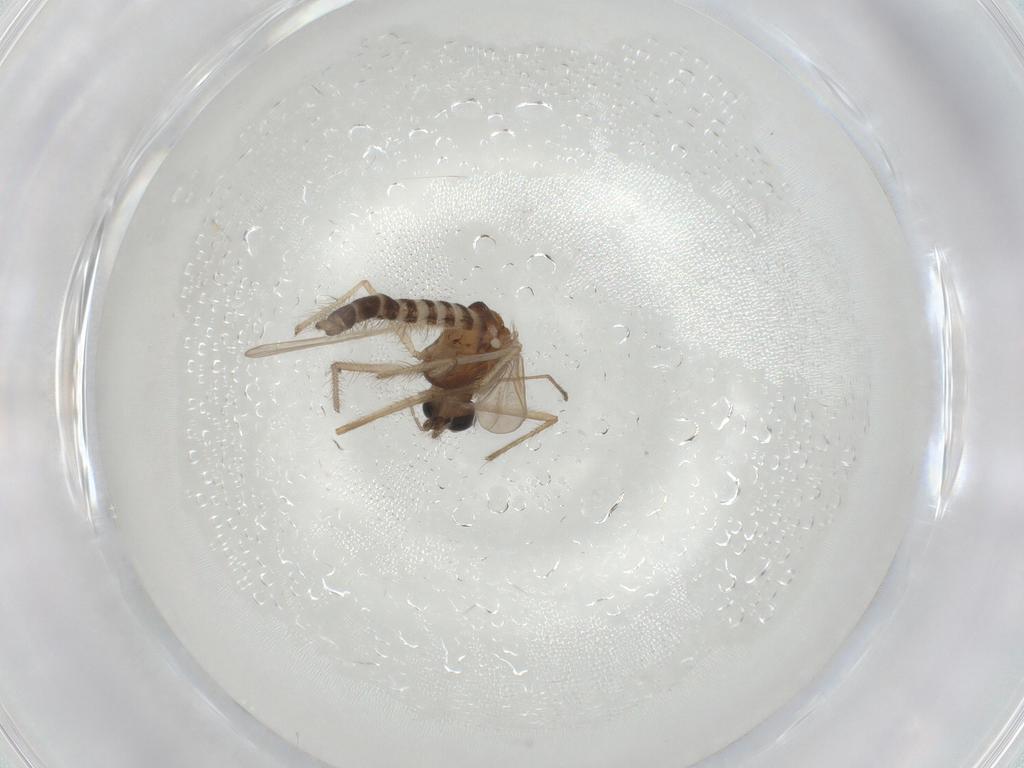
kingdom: Animalia
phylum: Arthropoda
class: Insecta
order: Diptera
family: Chironomidae
